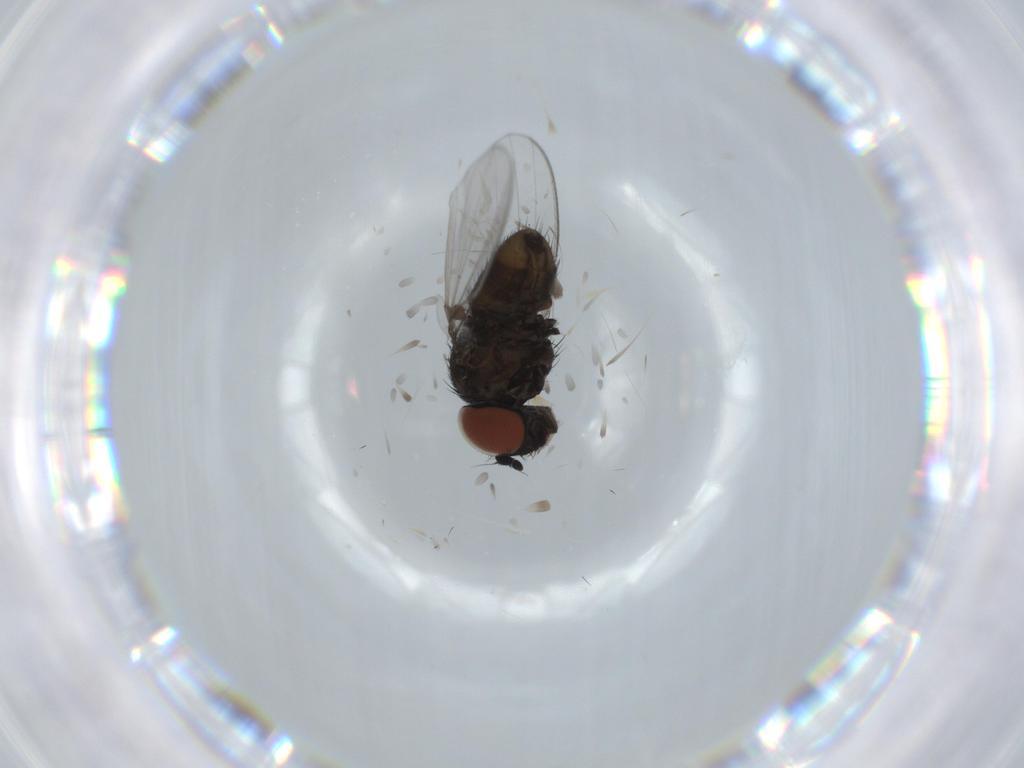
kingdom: Animalia
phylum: Arthropoda
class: Insecta
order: Diptera
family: Milichiidae
